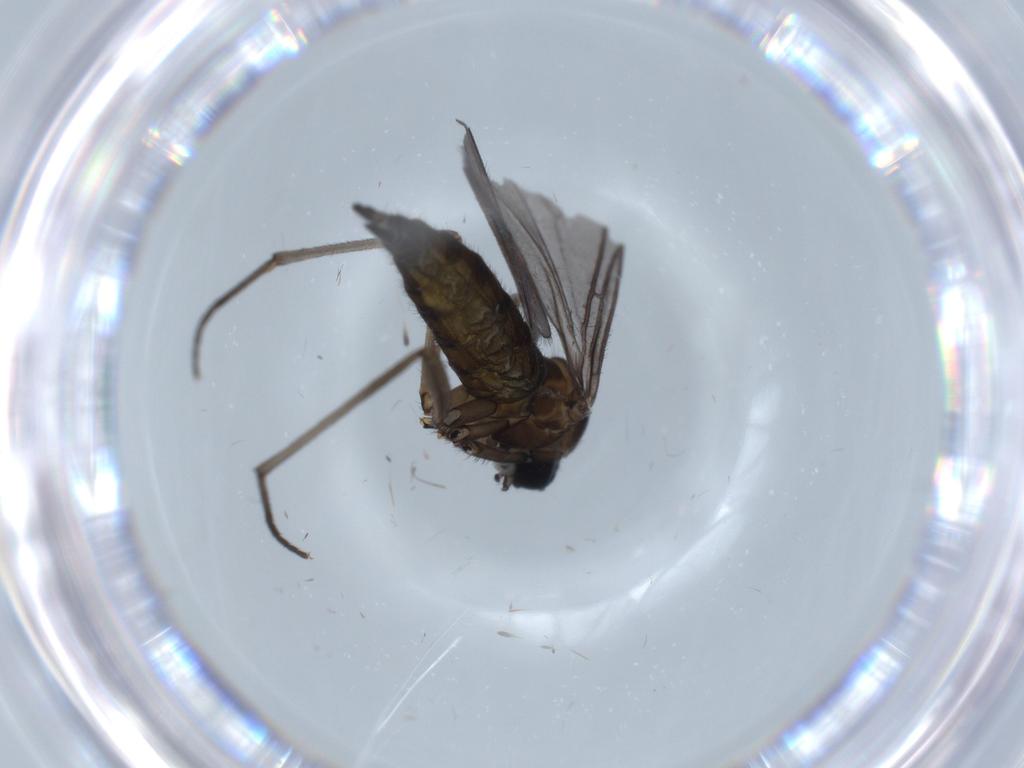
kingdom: Animalia
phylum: Arthropoda
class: Insecta
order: Diptera
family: Sciaridae
